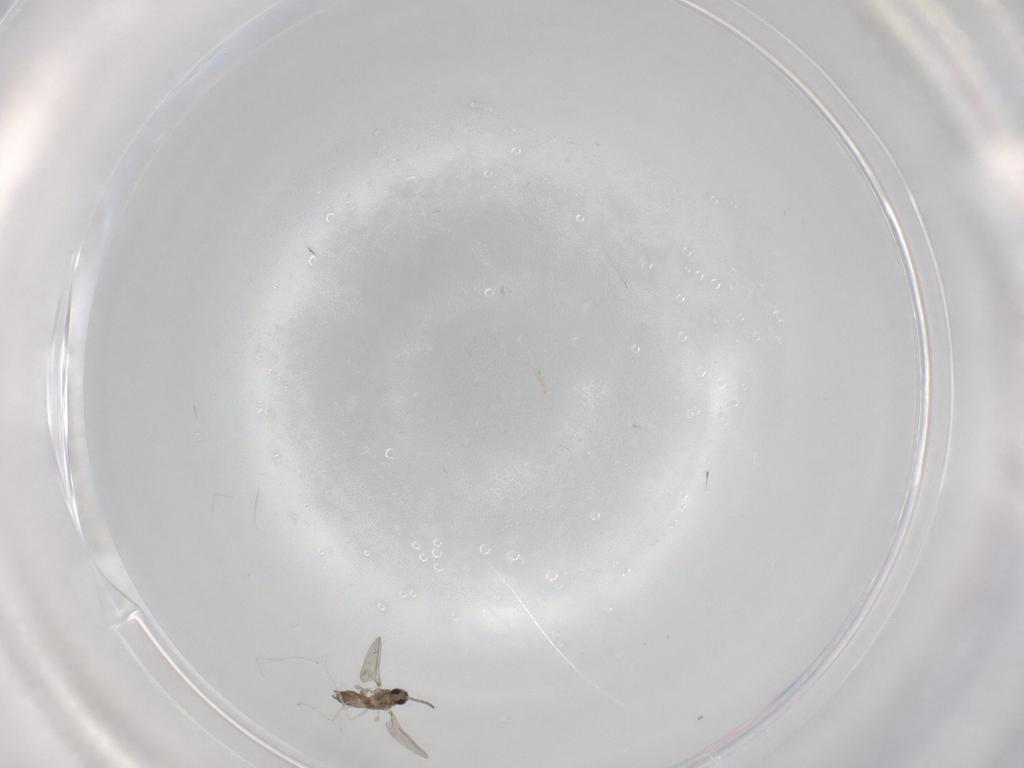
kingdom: Animalia
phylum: Arthropoda
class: Insecta
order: Diptera
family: Cecidomyiidae
